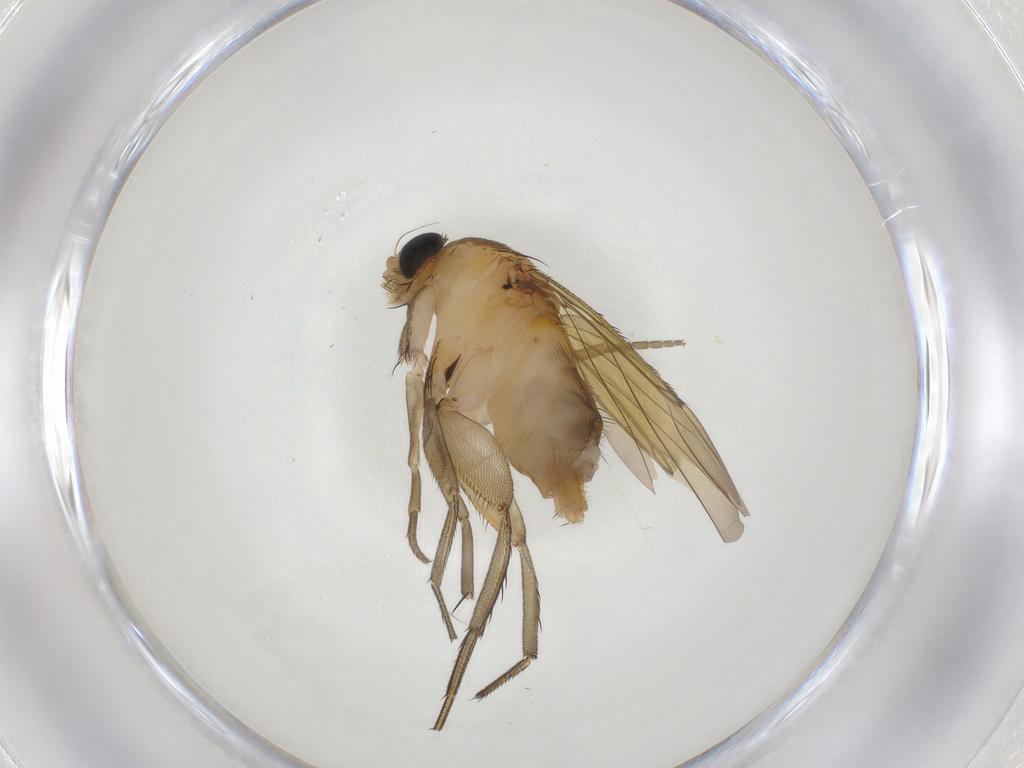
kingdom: Animalia
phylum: Arthropoda
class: Insecta
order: Diptera
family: Phoridae
